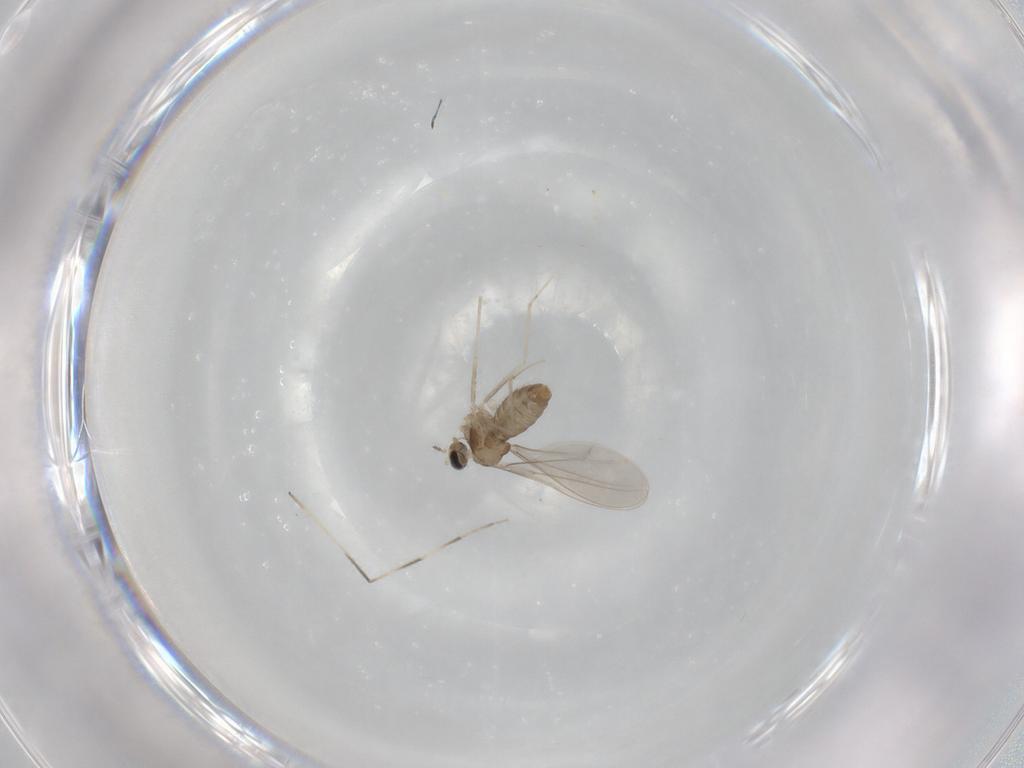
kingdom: Animalia
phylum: Arthropoda
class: Insecta
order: Diptera
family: Cecidomyiidae
